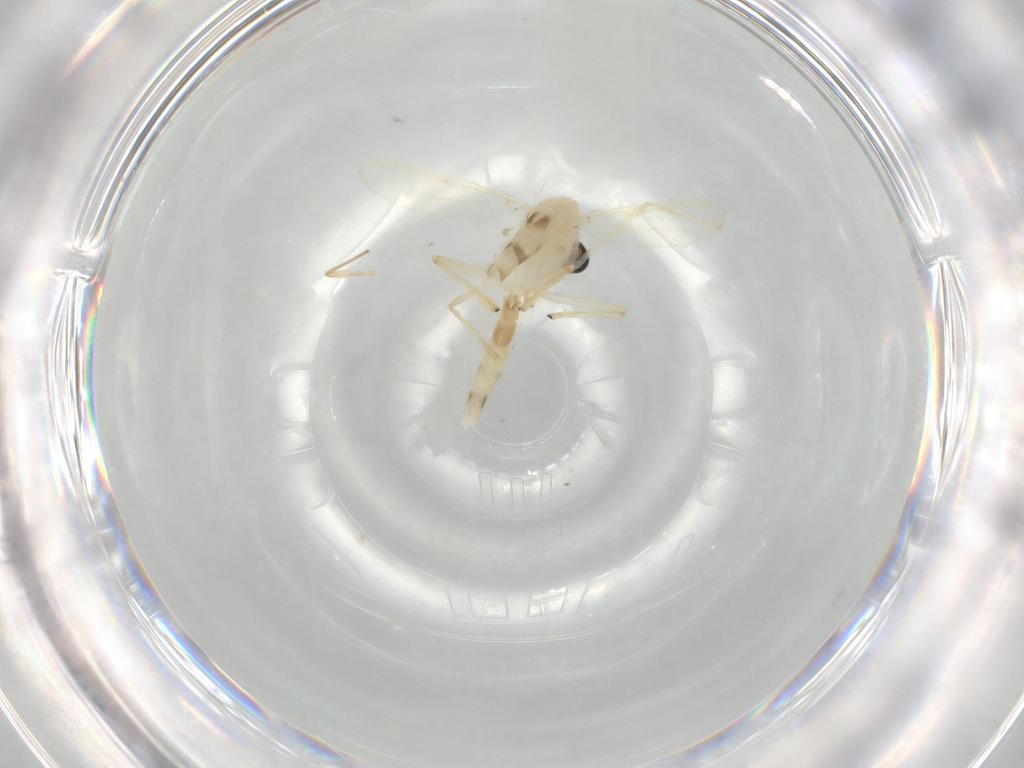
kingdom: Animalia
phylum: Arthropoda
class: Insecta
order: Diptera
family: Chironomidae
